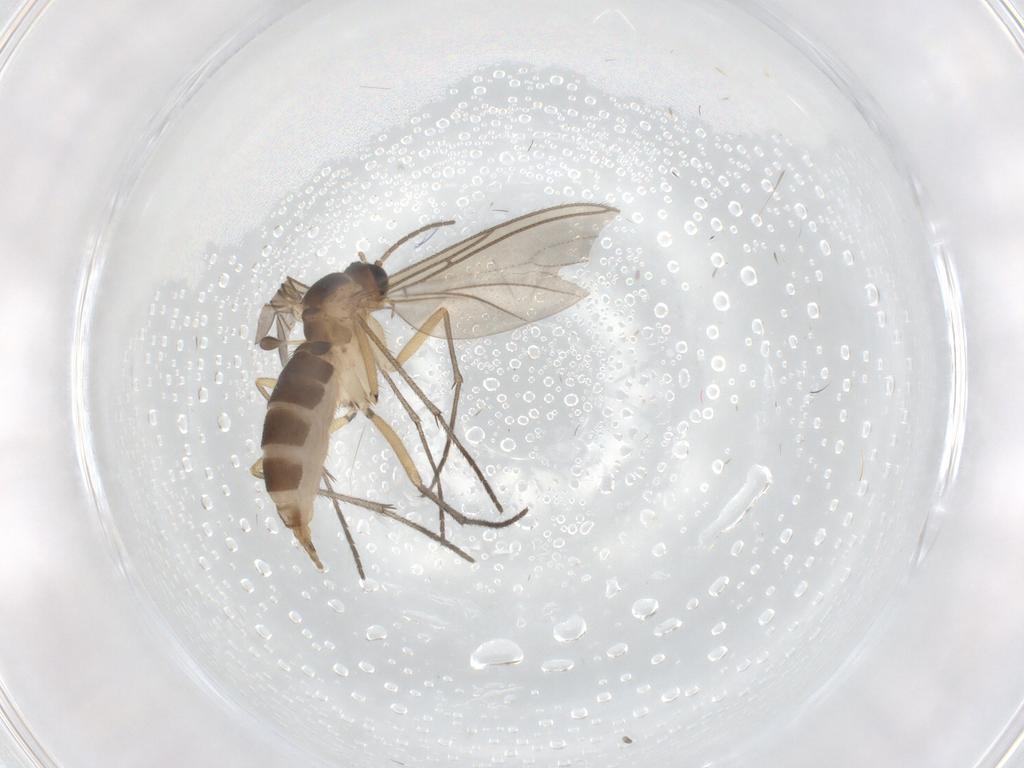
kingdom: Animalia
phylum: Arthropoda
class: Insecta
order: Diptera
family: Sciaridae
